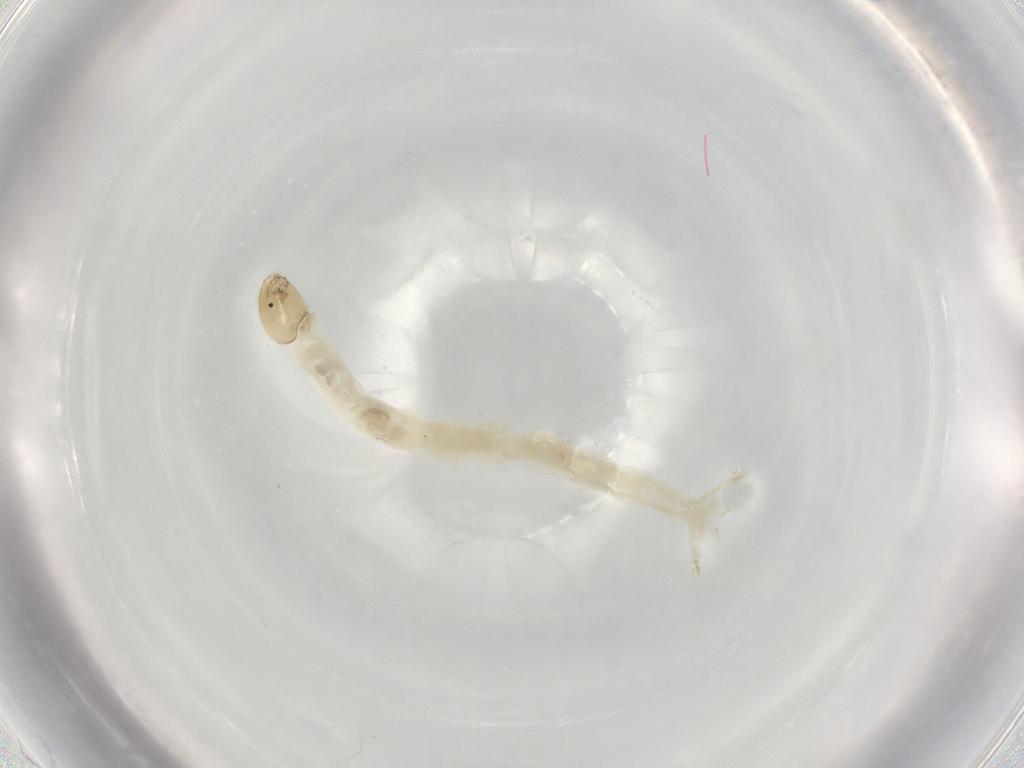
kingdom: Animalia
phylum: Arthropoda
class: Insecta
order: Diptera
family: Chironomidae
